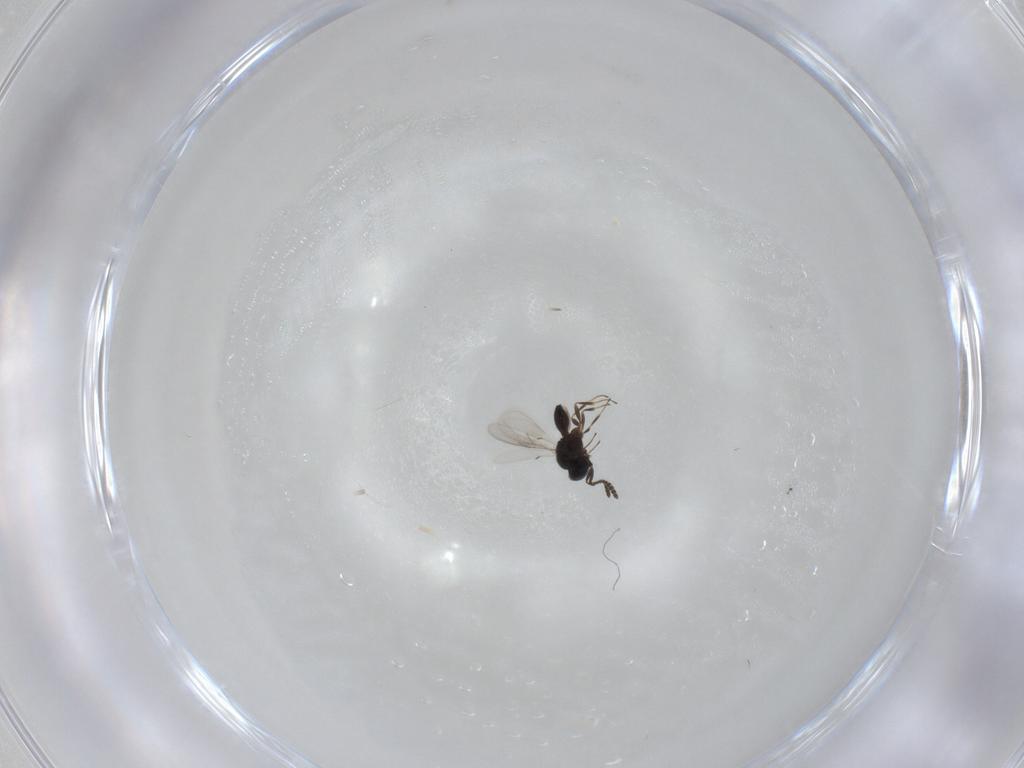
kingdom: Animalia
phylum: Arthropoda
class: Insecta
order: Hymenoptera
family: Scelionidae
